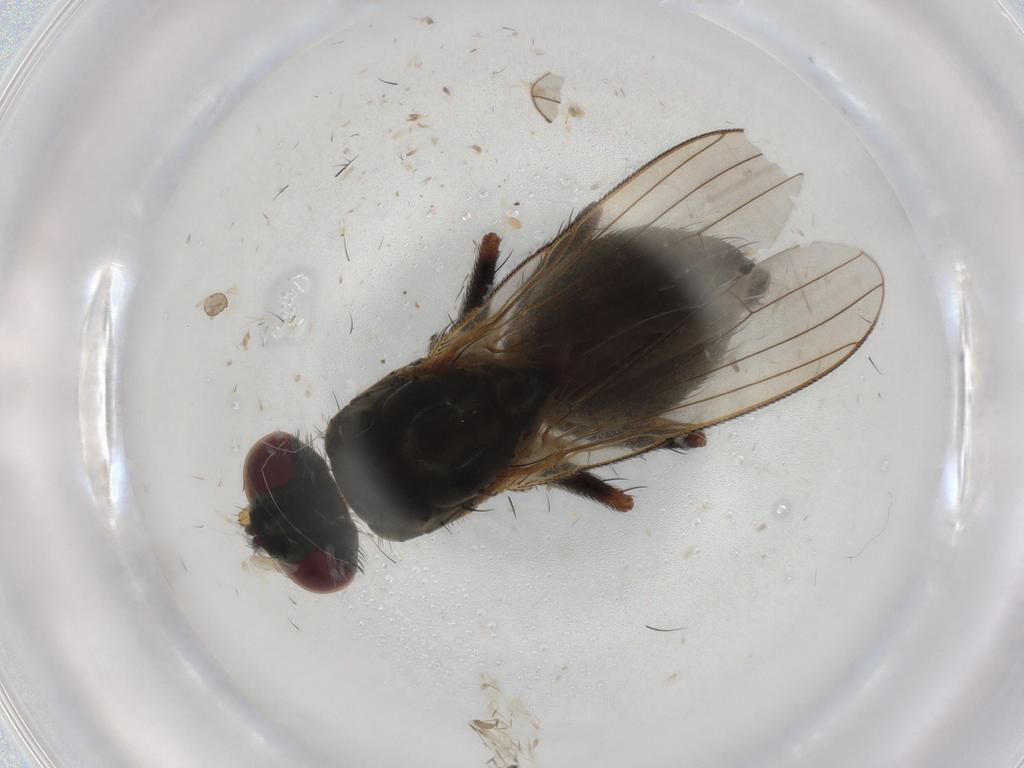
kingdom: Animalia
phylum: Arthropoda
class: Insecta
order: Diptera
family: Muscidae
